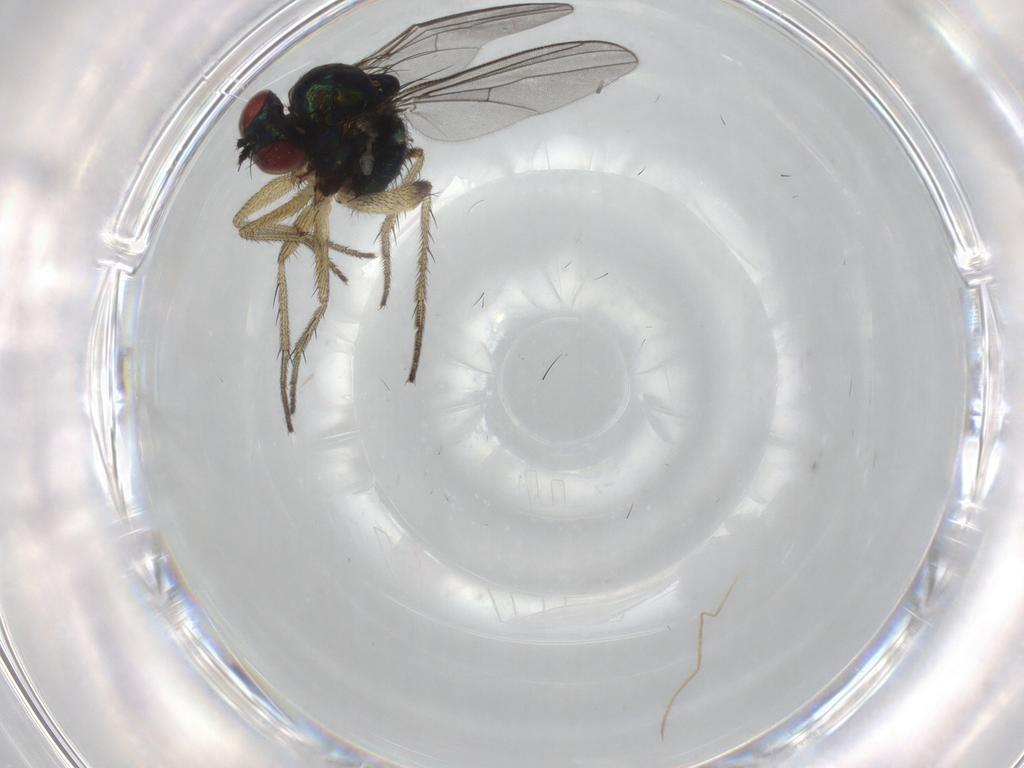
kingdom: Animalia
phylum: Arthropoda
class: Insecta
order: Diptera
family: Dolichopodidae
